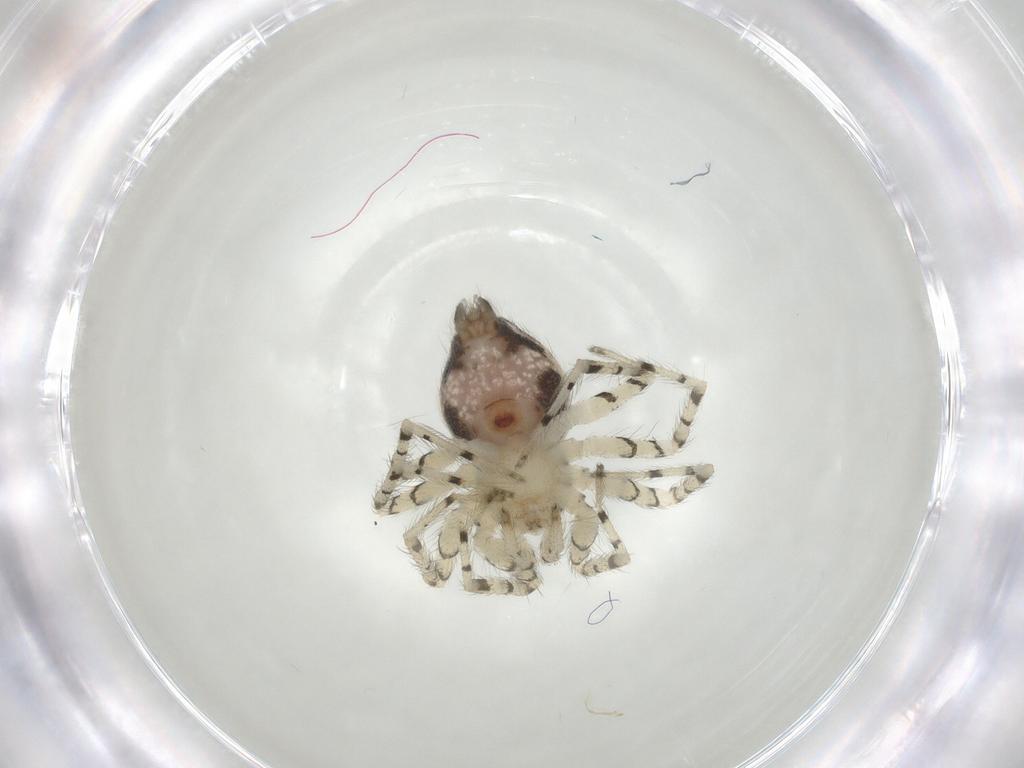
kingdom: Animalia
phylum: Arthropoda
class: Arachnida
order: Araneae
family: Oecobiidae
